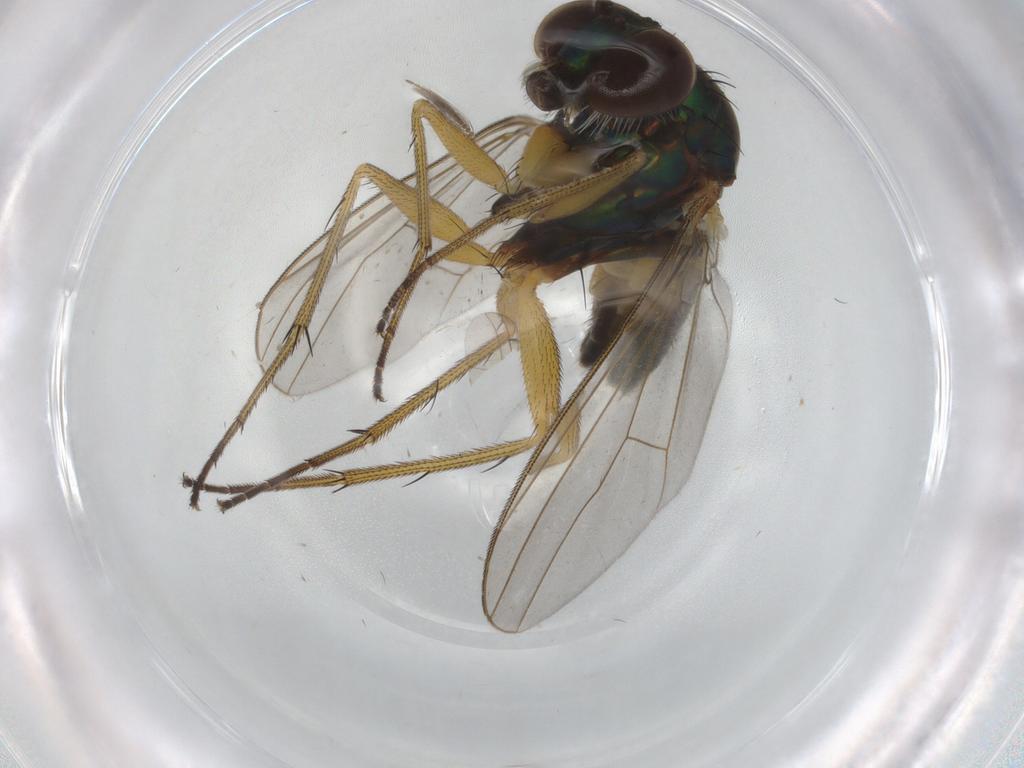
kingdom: Animalia
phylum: Arthropoda
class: Insecta
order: Diptera
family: Ceratopogonidae
